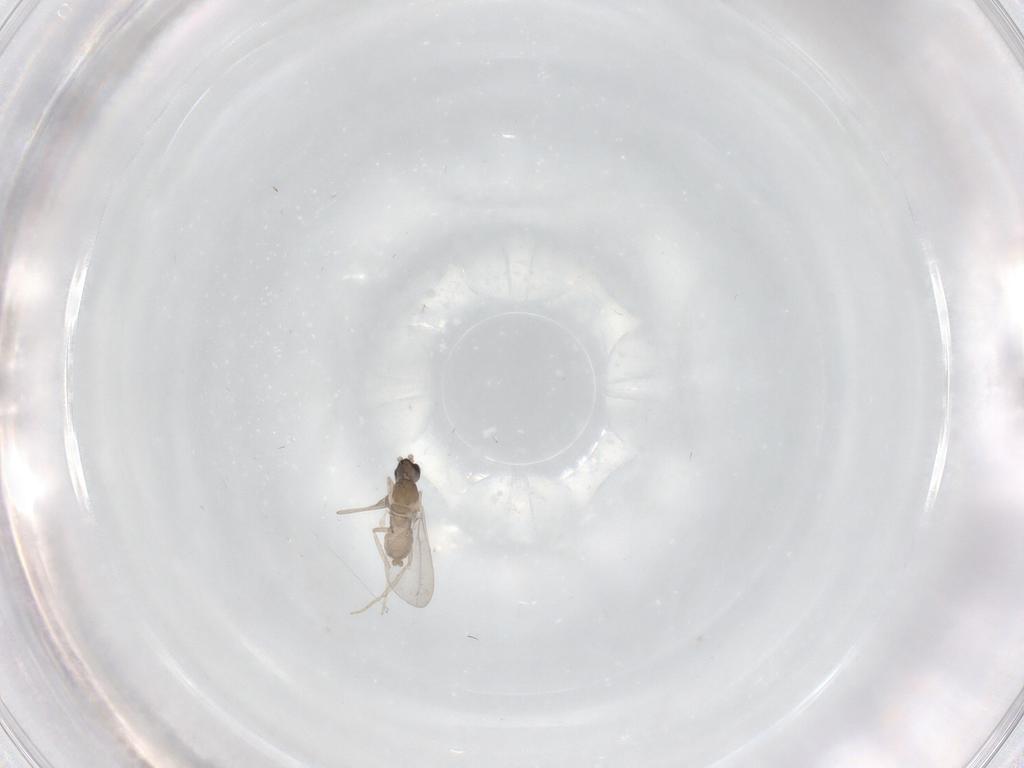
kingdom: Animalia
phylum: Arthropoda
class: Insecta
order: Diptera
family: Cecidomyiidae
